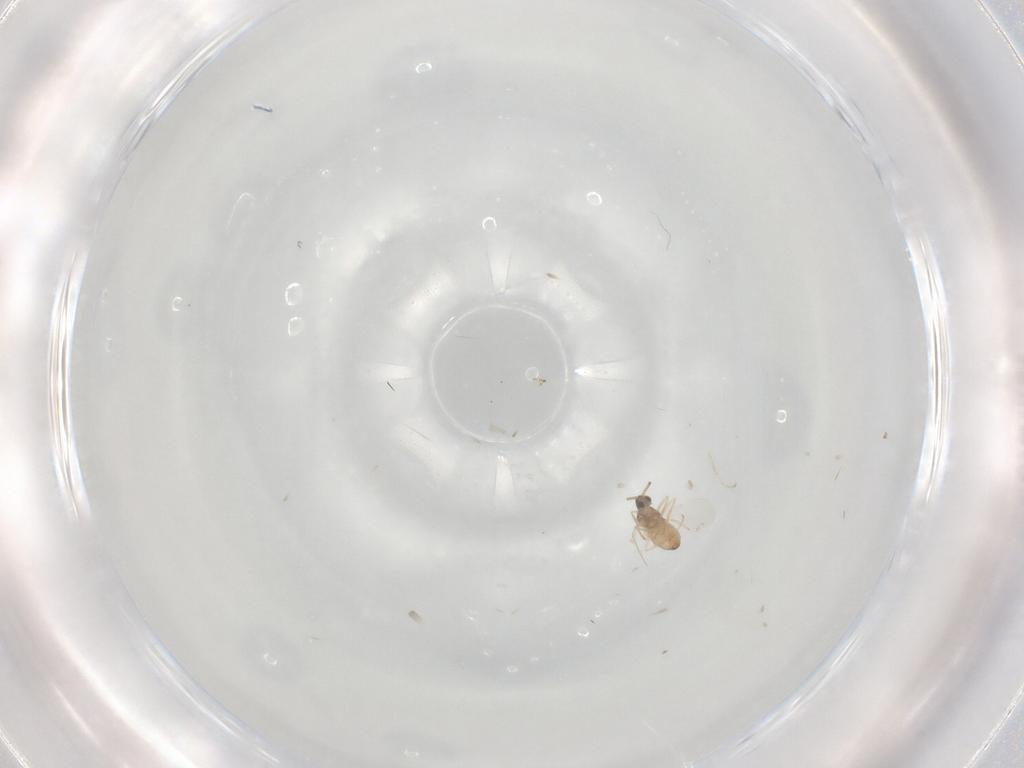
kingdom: Animalia
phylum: Arthropoda
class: Insecta
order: Diptera
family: Cecidomyiidae
